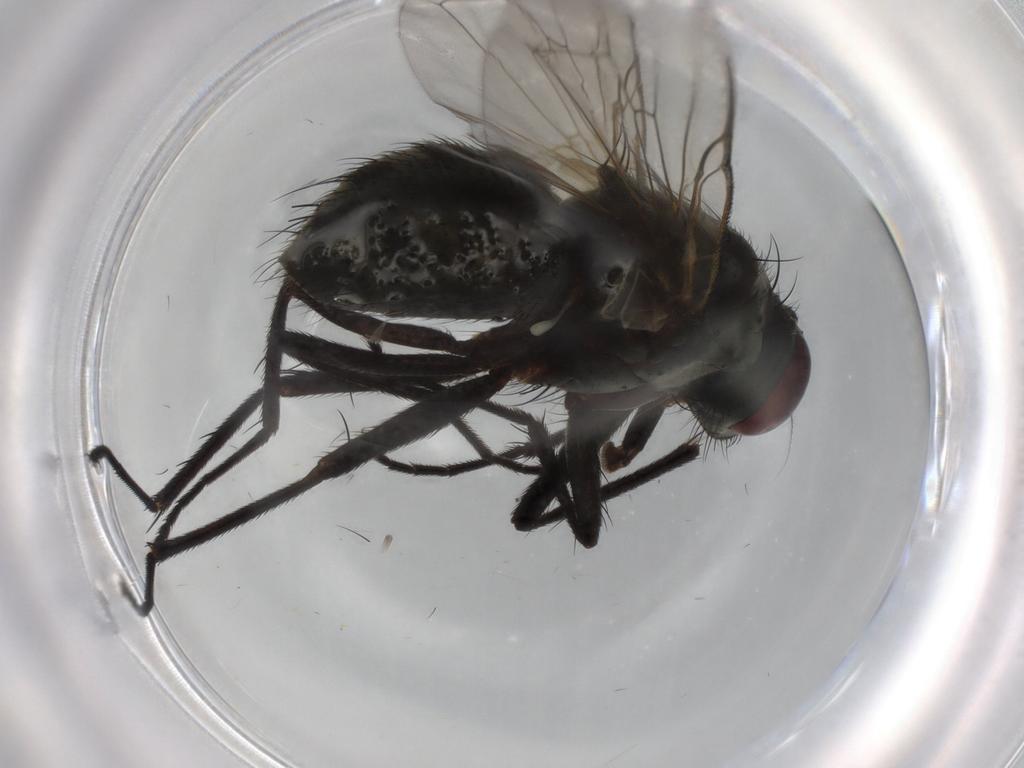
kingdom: Animalia
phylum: Arthropoda
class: Insecta
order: Diptera
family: Muscidae
